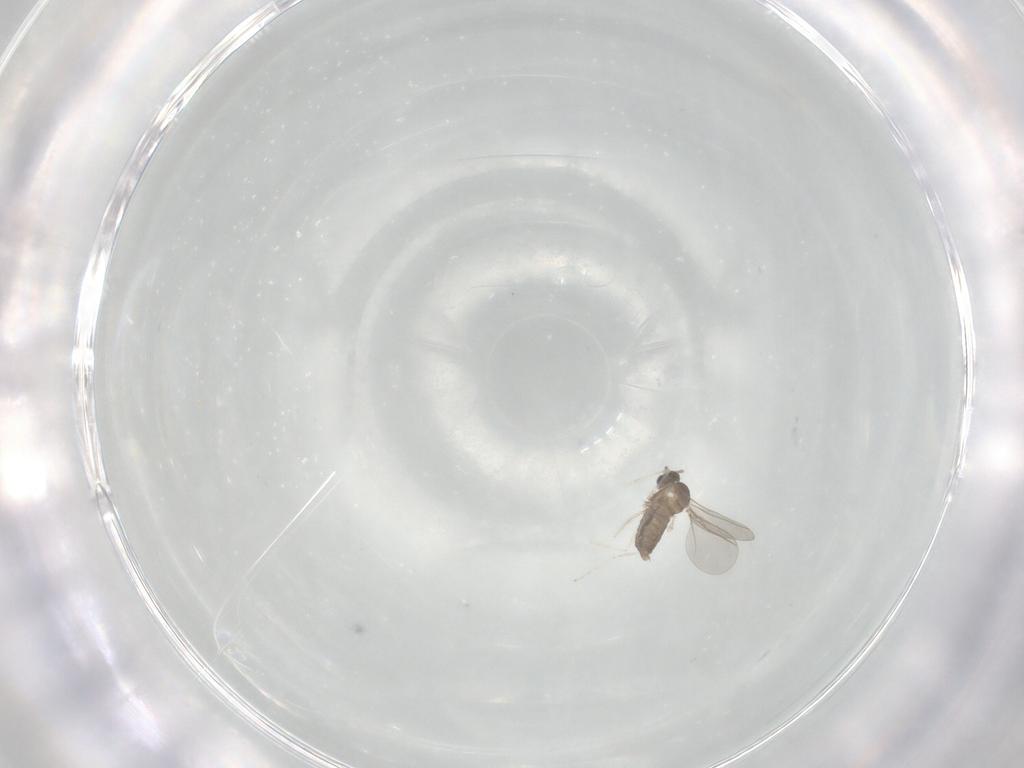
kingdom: Animalia
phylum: Arthropoda
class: Insecta
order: Diptera
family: Cecidomyiidae
